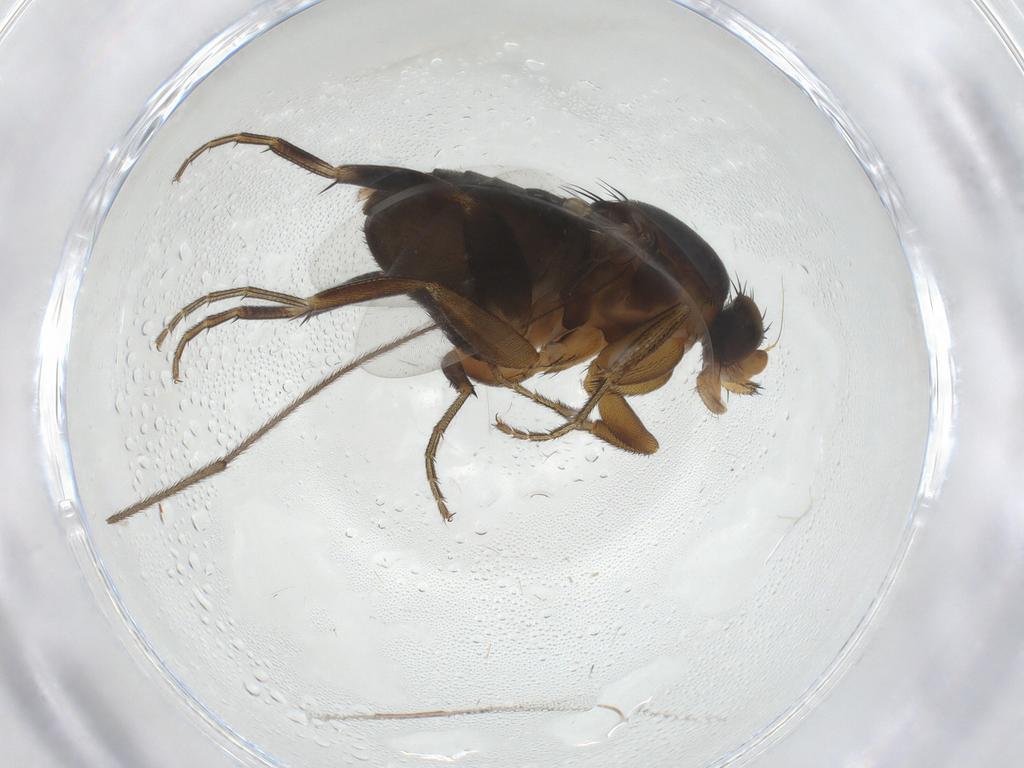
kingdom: Animalia
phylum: Arthropoda
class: Insecta
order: Diptera
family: Phoridae
